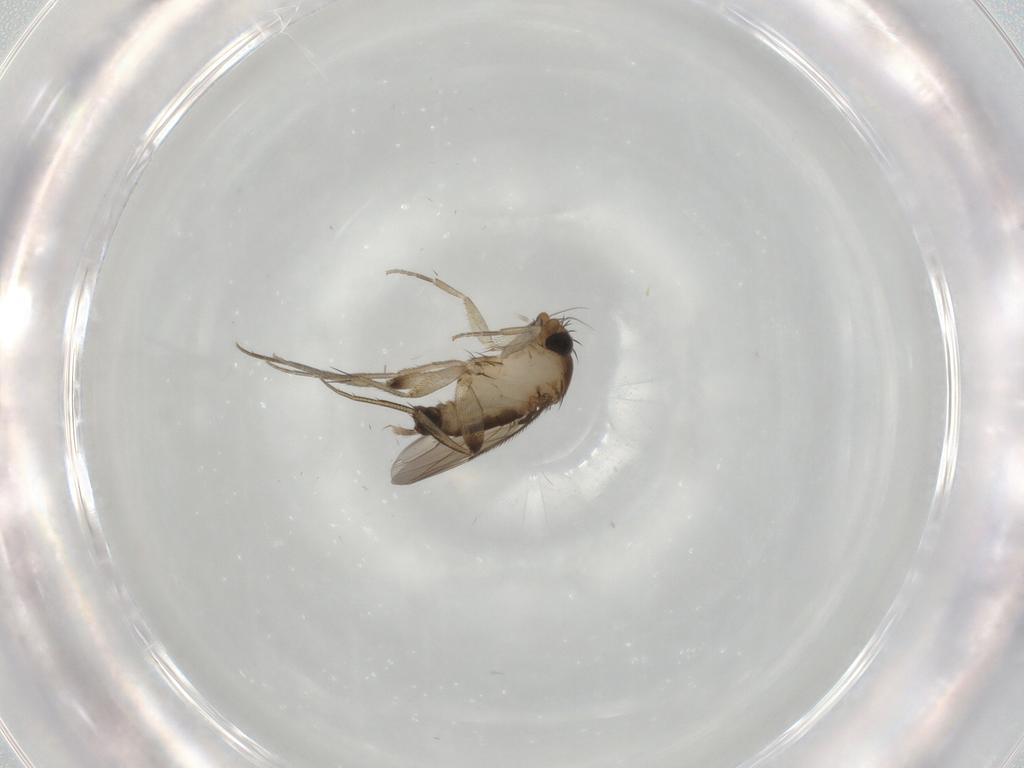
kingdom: Animalia
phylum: Arthropoda
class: Insecta
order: Diptera
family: Phoridae
